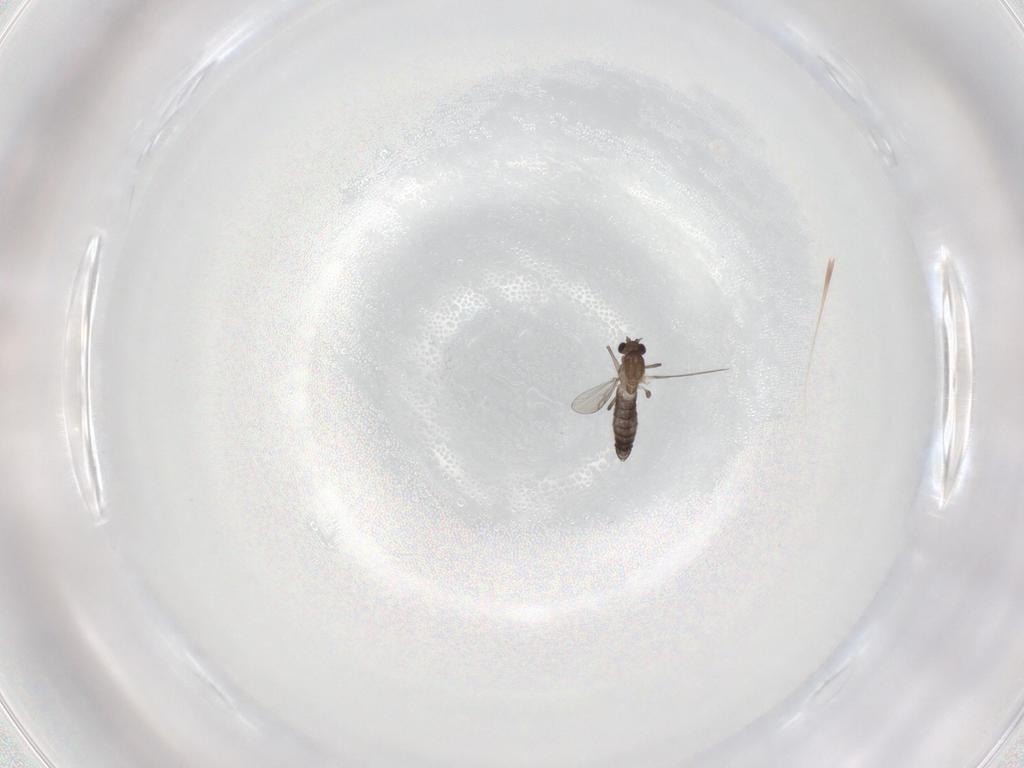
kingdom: Animalia
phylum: Arthropoda
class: Insecta
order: Diptera
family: Chironomidae
